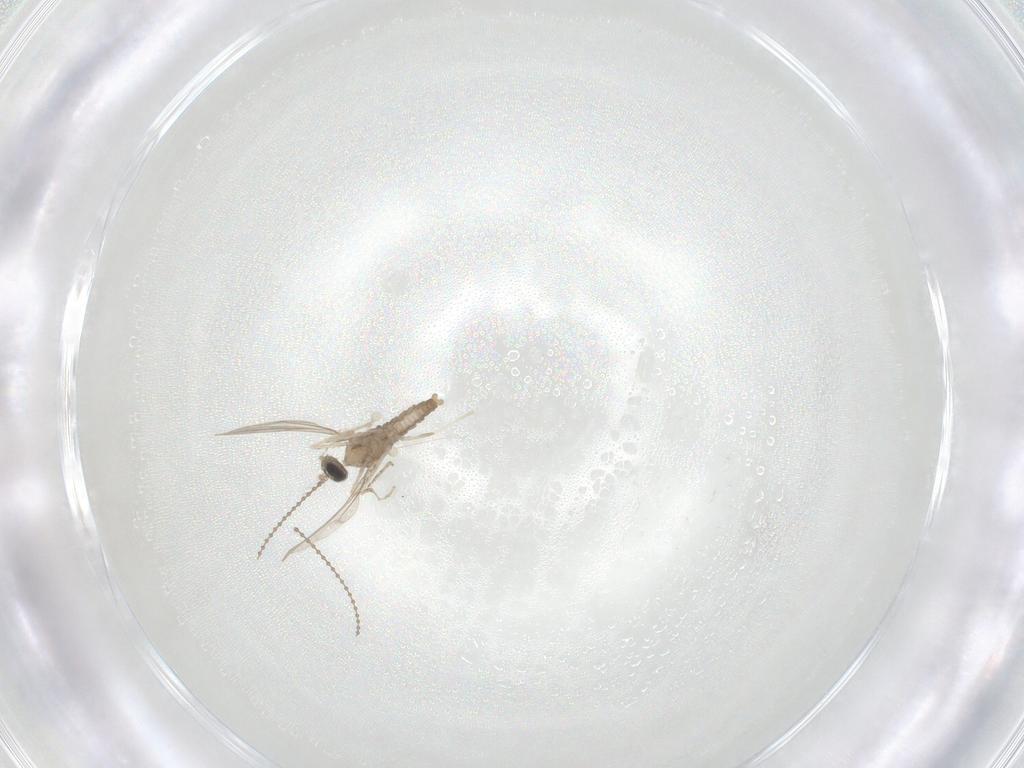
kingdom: Animalia
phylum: Arthropoda
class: Insecta
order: Diptera
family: Cecidomyiidae
